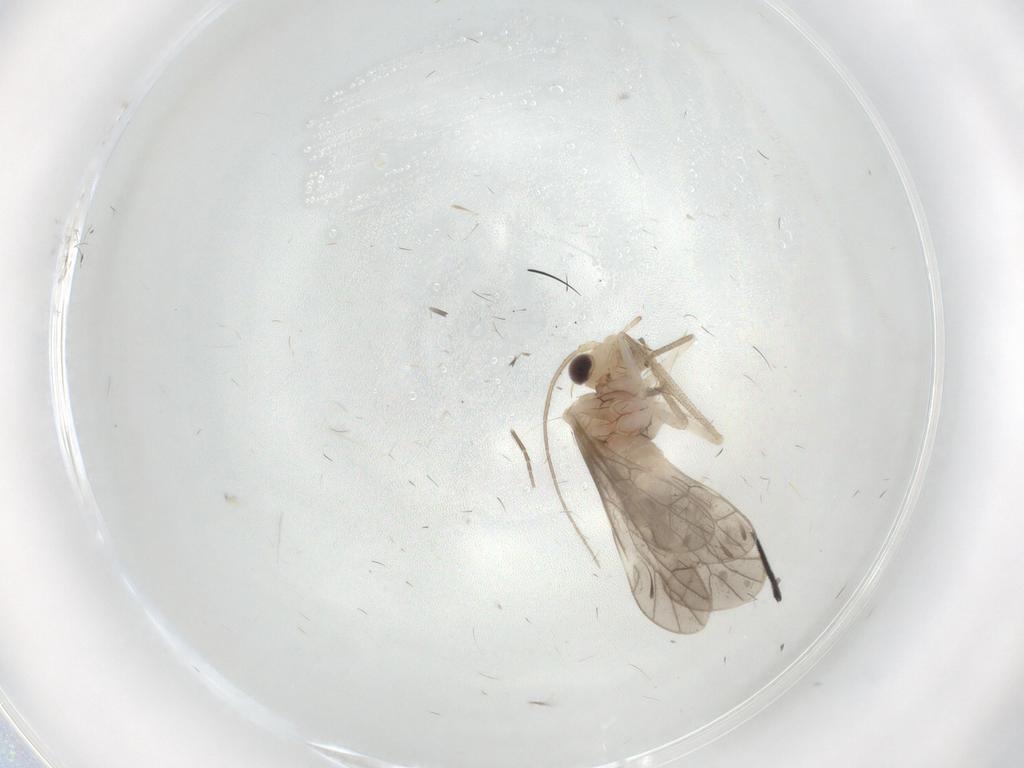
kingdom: Animalia
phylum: Arthropoda
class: Insecta
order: Psocodea
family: Caeciliusidae
